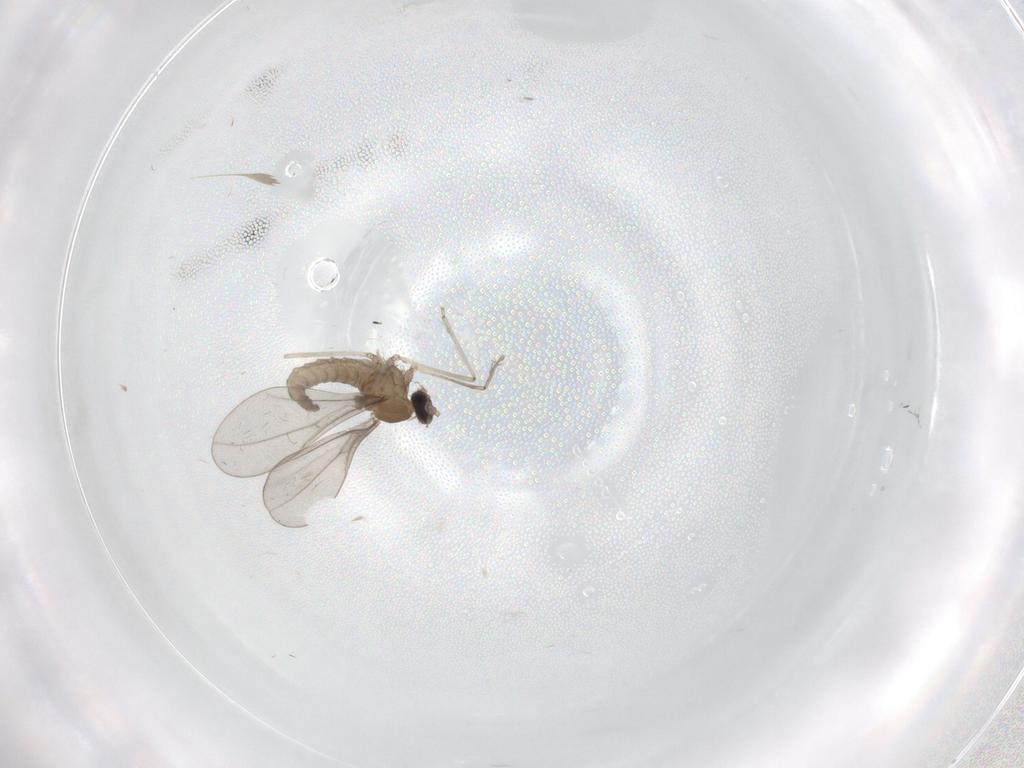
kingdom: Animalia
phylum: Arthropoda
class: Insecta
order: Diptera
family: Cecidomyiidae
